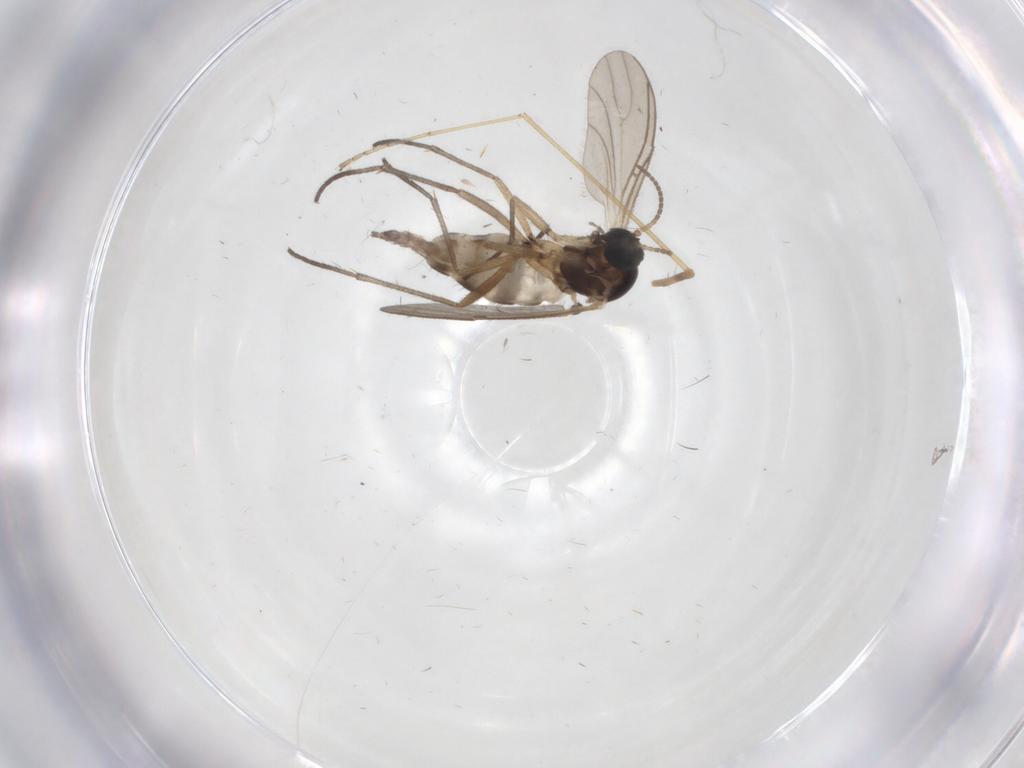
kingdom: Animalia
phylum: Arthropoda
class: Insecta
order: Diptera
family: Sciaridae
